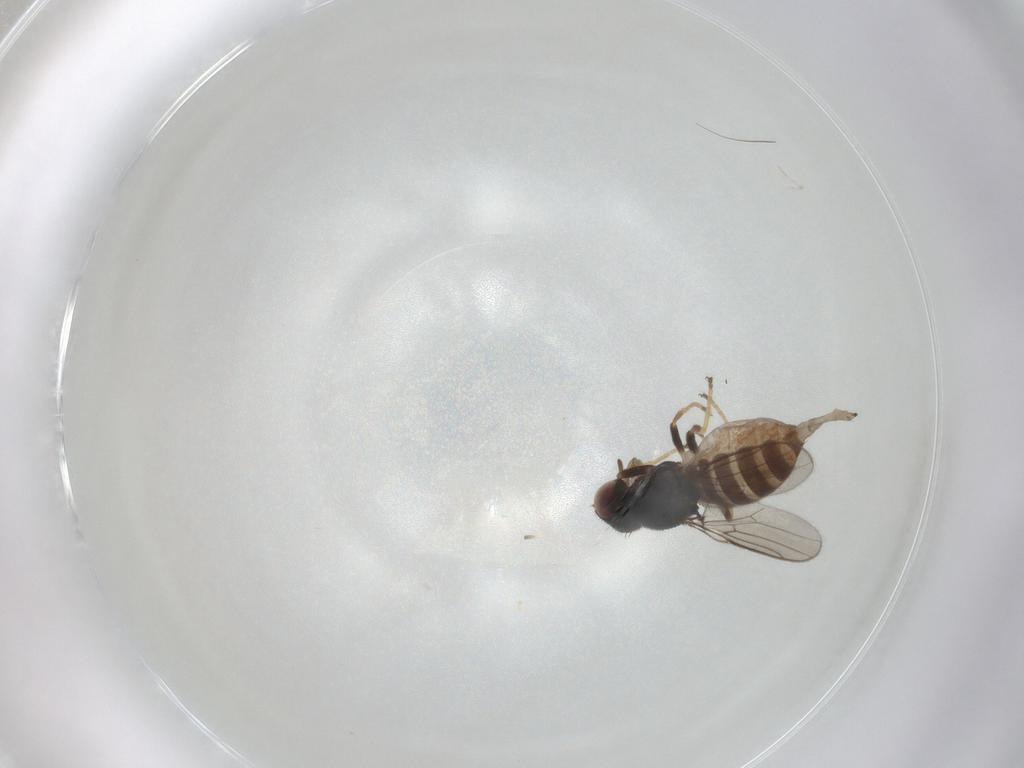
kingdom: Animalia
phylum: Arthropoda
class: Insecta
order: Diptera
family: Chloropidae
